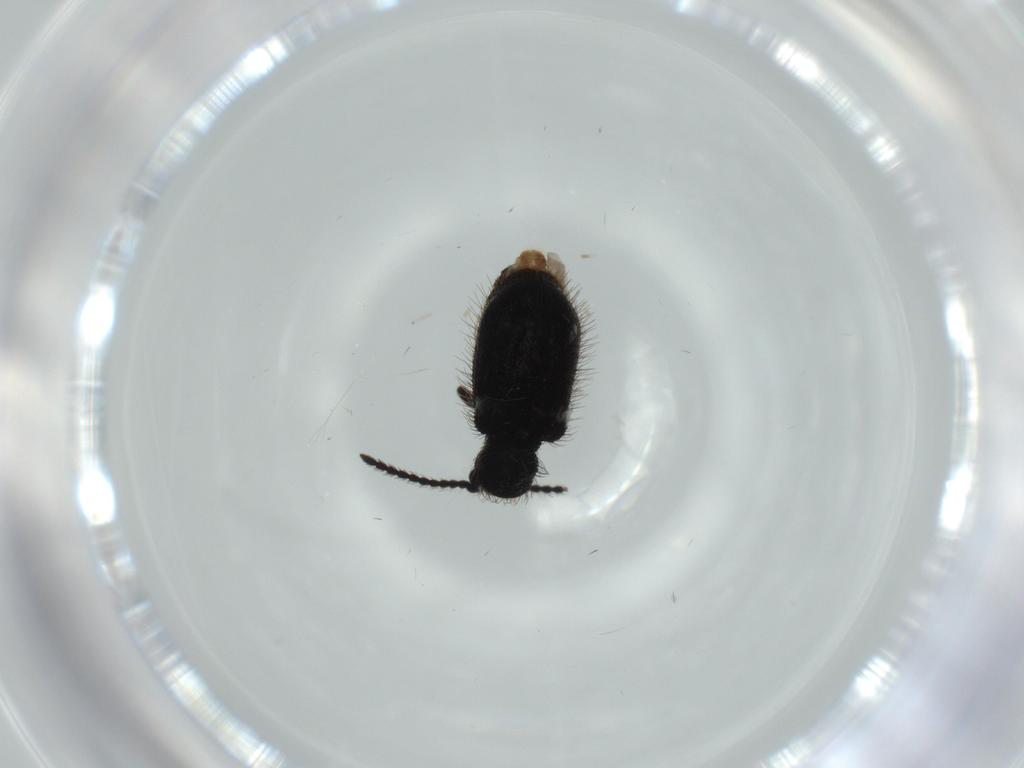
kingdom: Animalia
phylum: Arthropoda
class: Insecta
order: Coleoptera
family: Ptinidae
